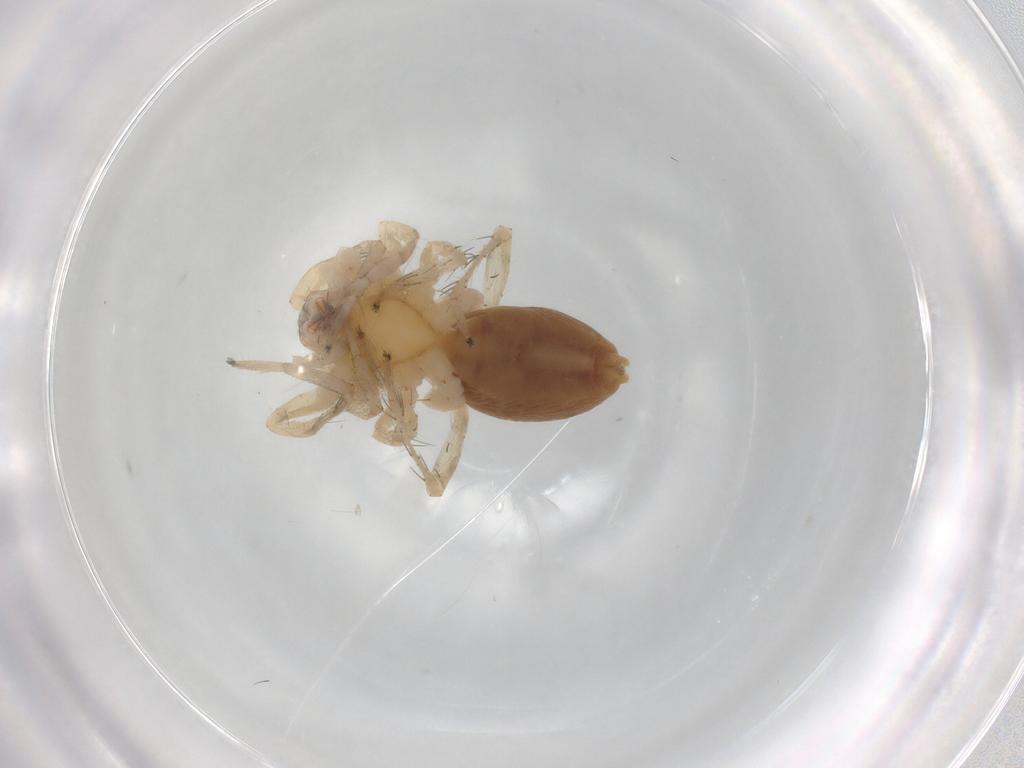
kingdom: Animalia
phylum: Arthropoda
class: Arachnida
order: Araneae
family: Anyphaenidae
